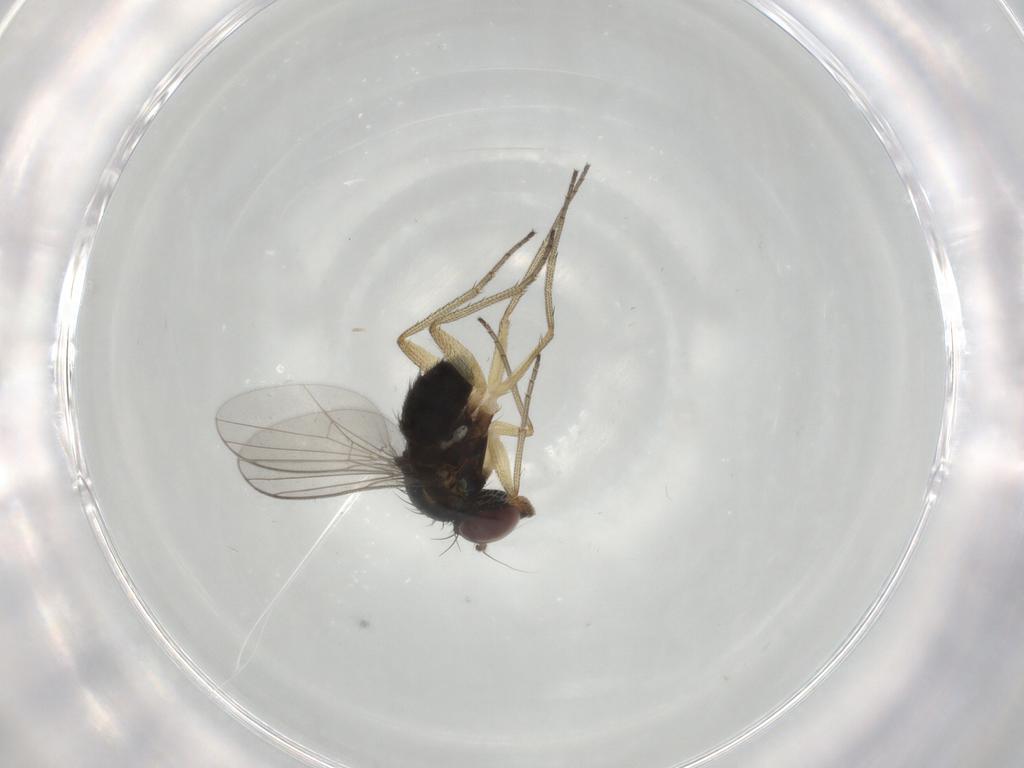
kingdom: Animalia
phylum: Arthropoda
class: Insecta
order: Diptera
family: Dolichopodidae
